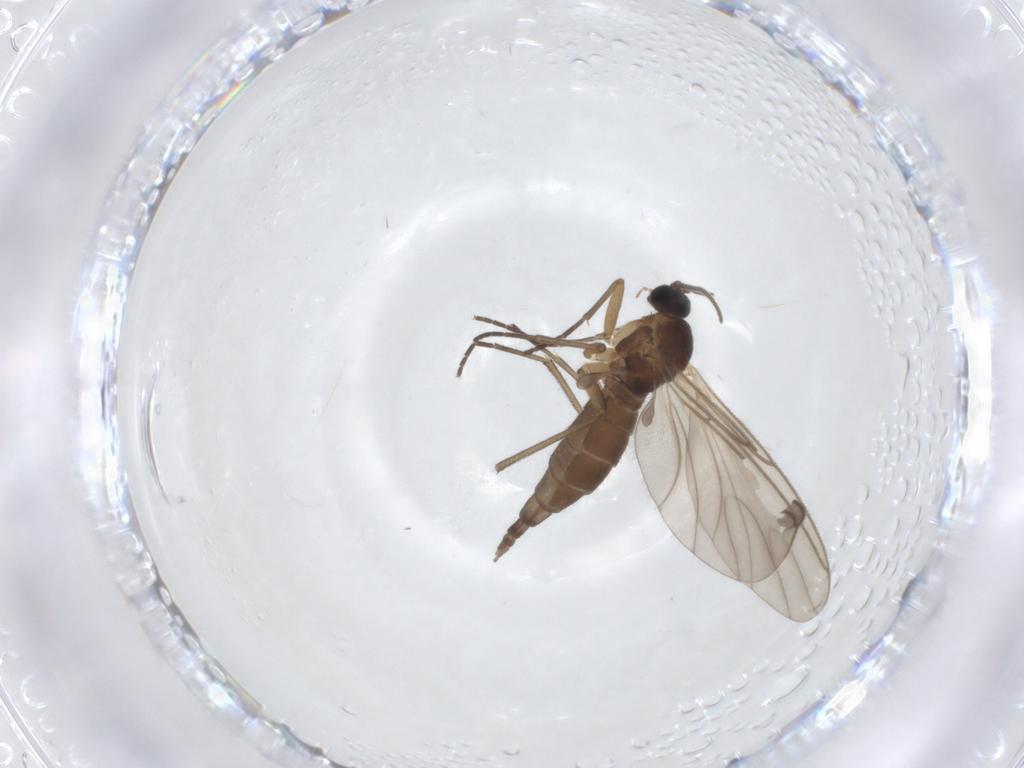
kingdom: Animalia
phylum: Arthropoda
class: Insecta
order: Diptera
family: Sciaridae
